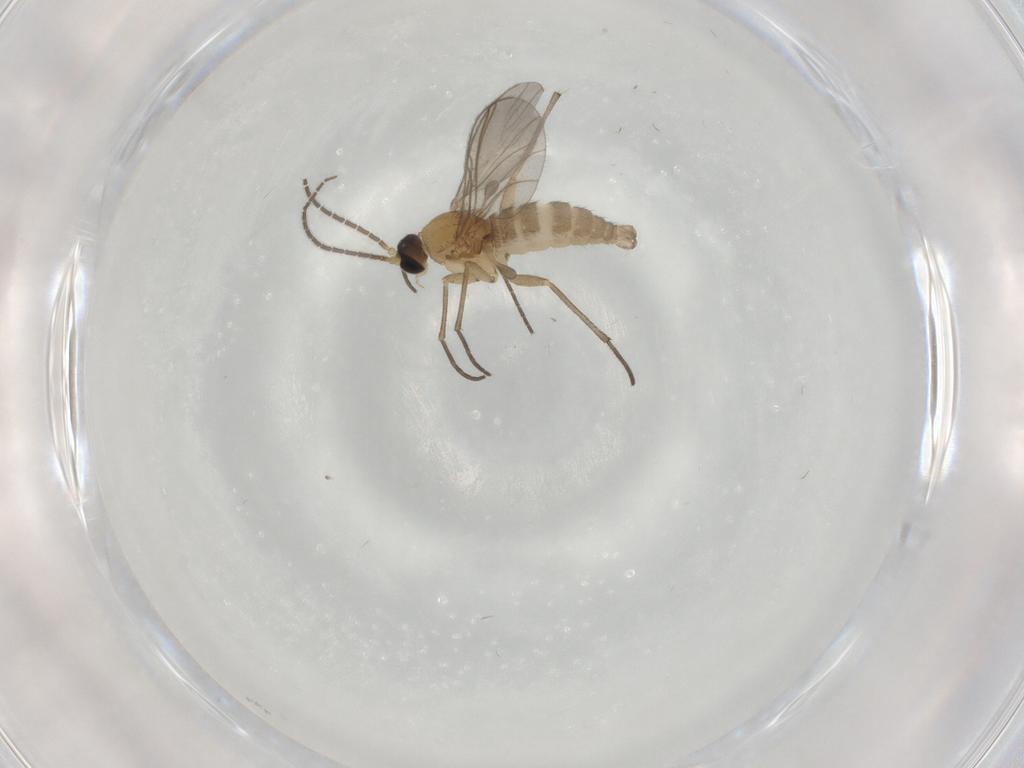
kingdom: Animalia
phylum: Arthropoda
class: Insecta
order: Diptera
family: Sciaridae
